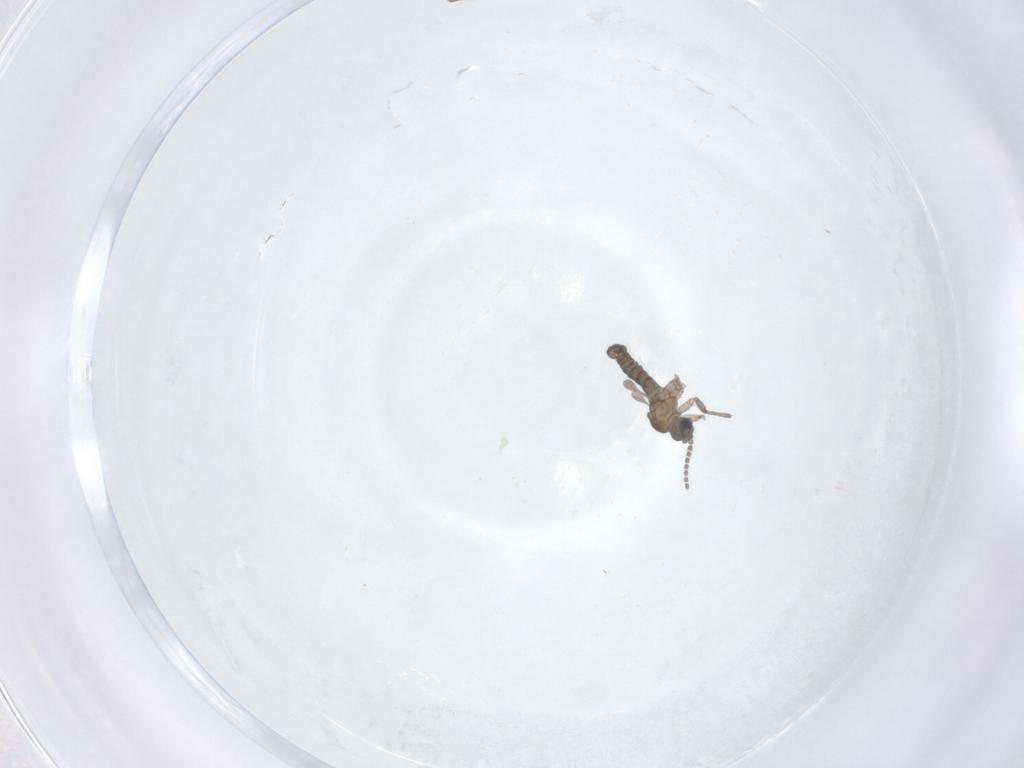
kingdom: Animalia
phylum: Arthropoda
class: Insecta
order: Diptera
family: Sciaridae
